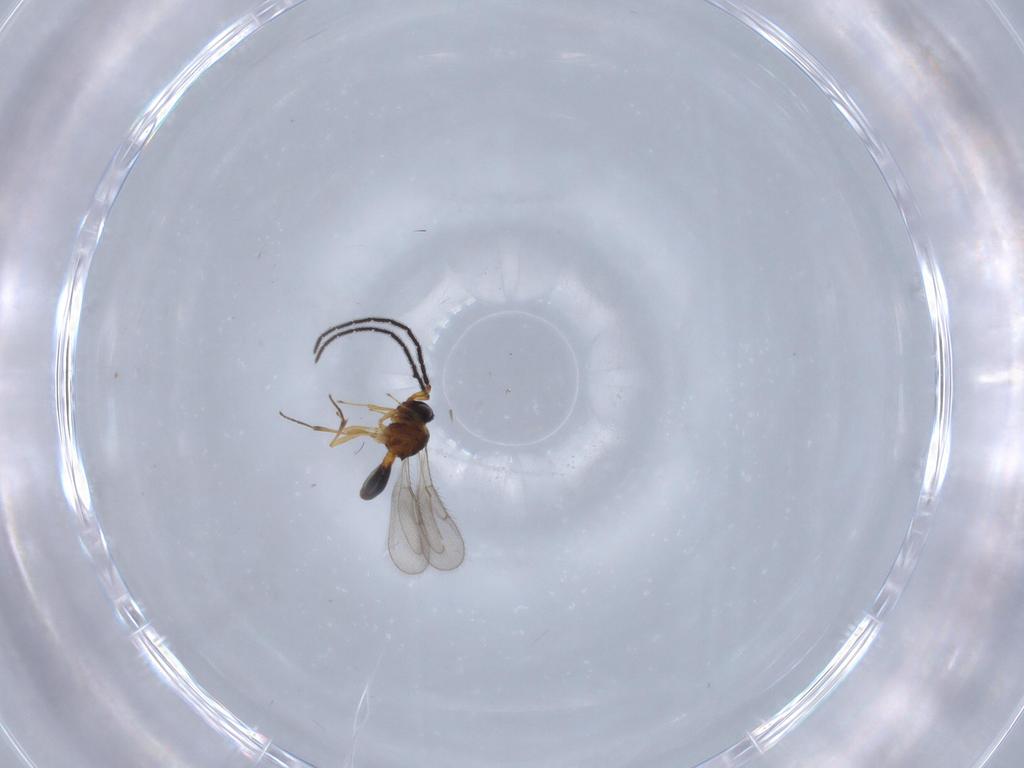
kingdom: Animalia
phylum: Arthropoda
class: Insecta
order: Hymenoptera
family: Scelionidae
